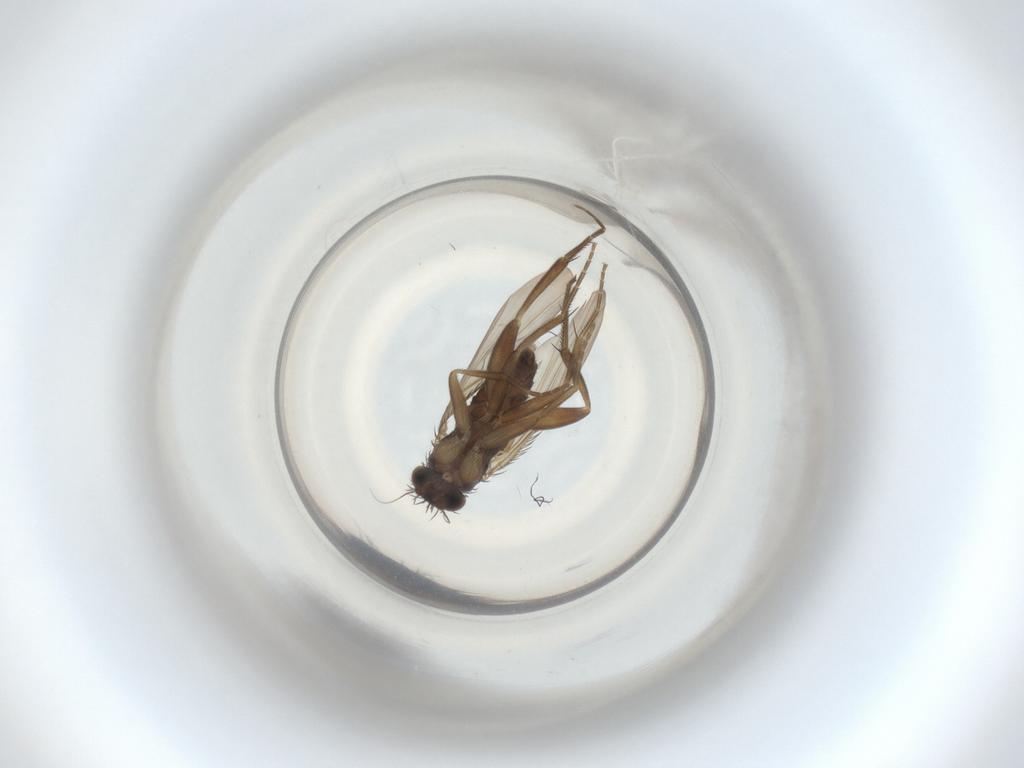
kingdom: Animalia
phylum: Arthropoda
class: Insecta
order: Diptera
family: Phoridae
